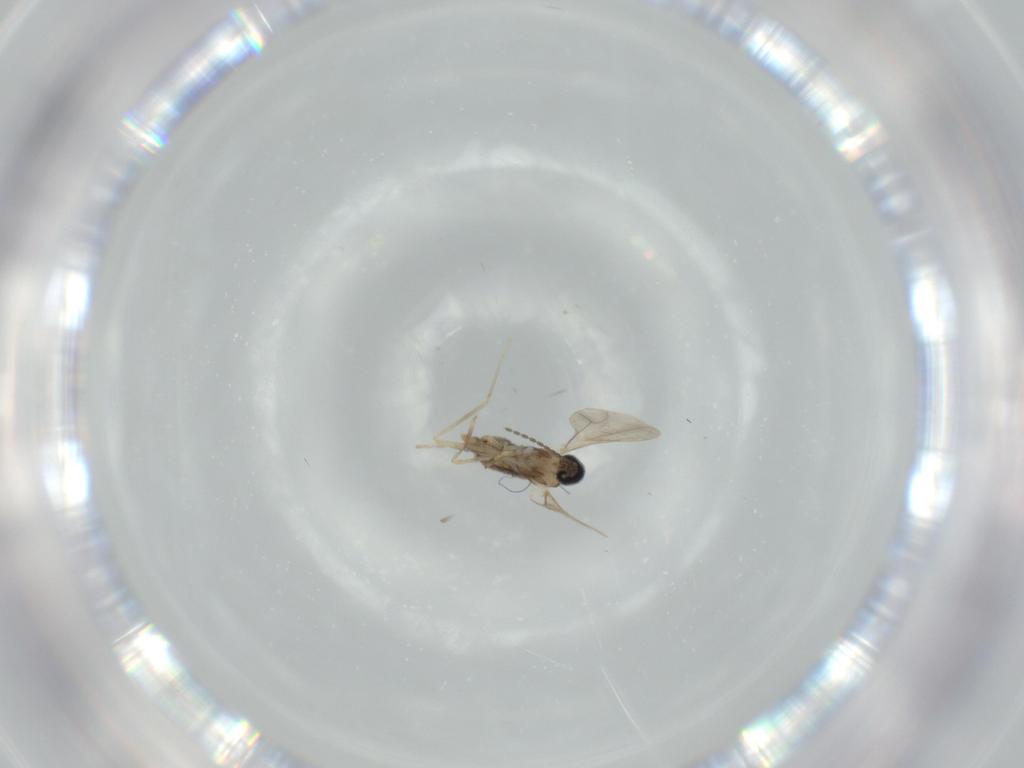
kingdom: Animalia
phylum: Arthropoda
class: Insecta
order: Diptera
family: Cecidomyiidae
